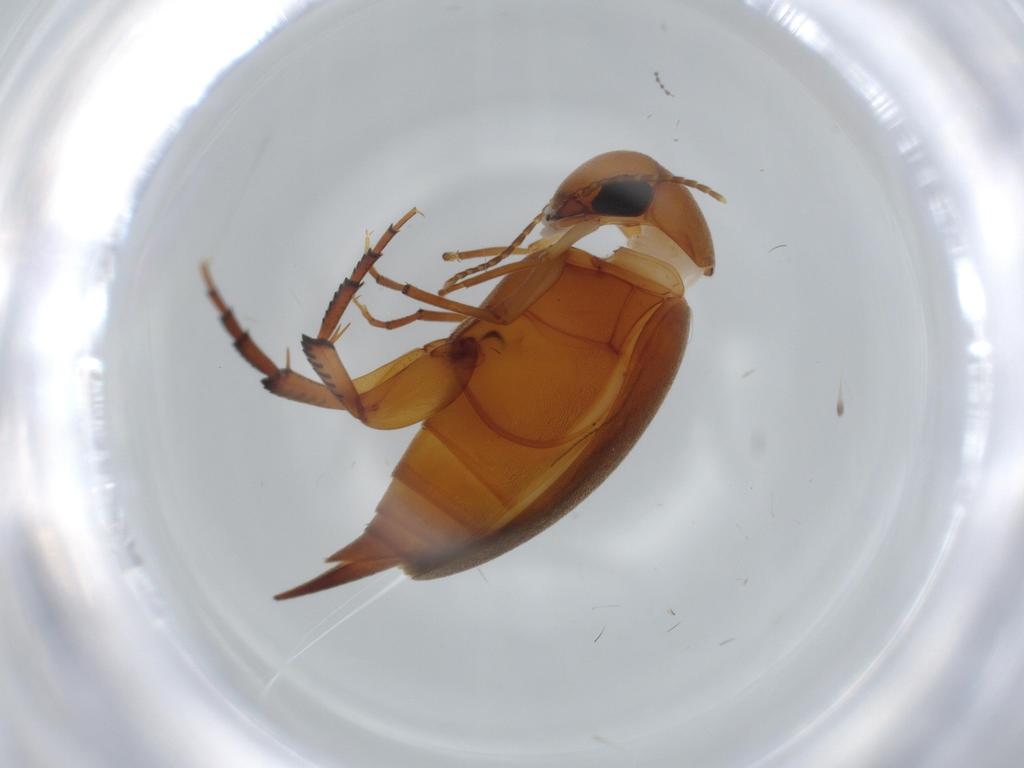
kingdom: Animalia
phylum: Arthropoda
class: Insecta
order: Coleoptera
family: Mordellidae
